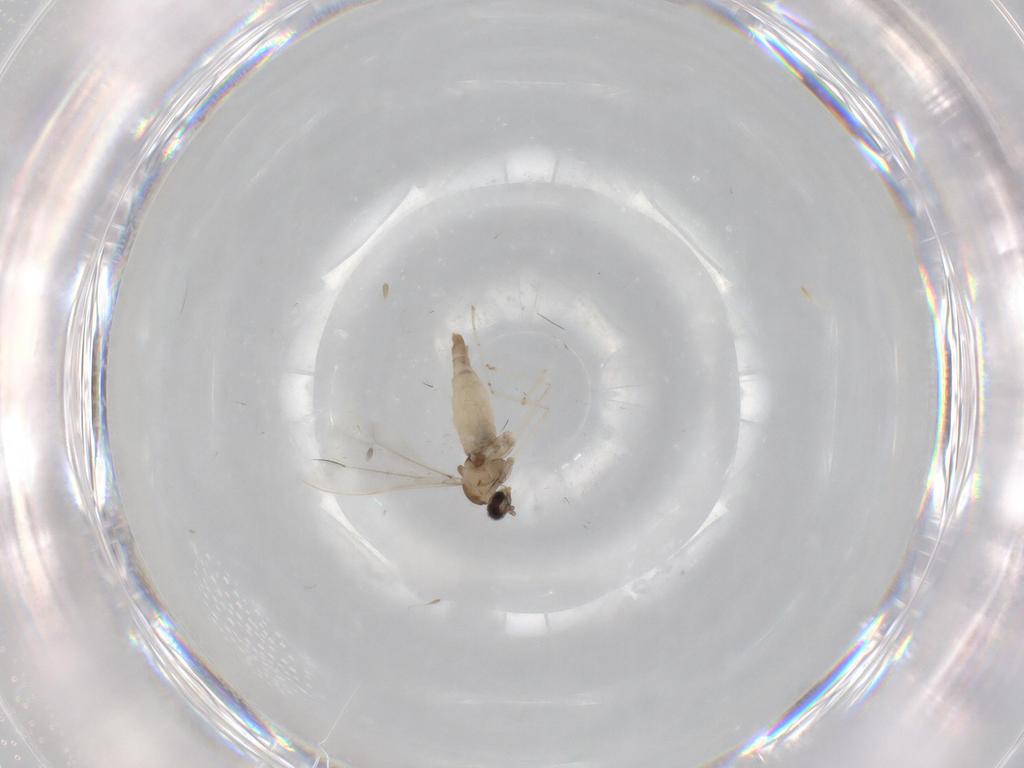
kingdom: Animalia
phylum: Arthropoda
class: Insecta
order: Diptera
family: Cecidomyiidae
